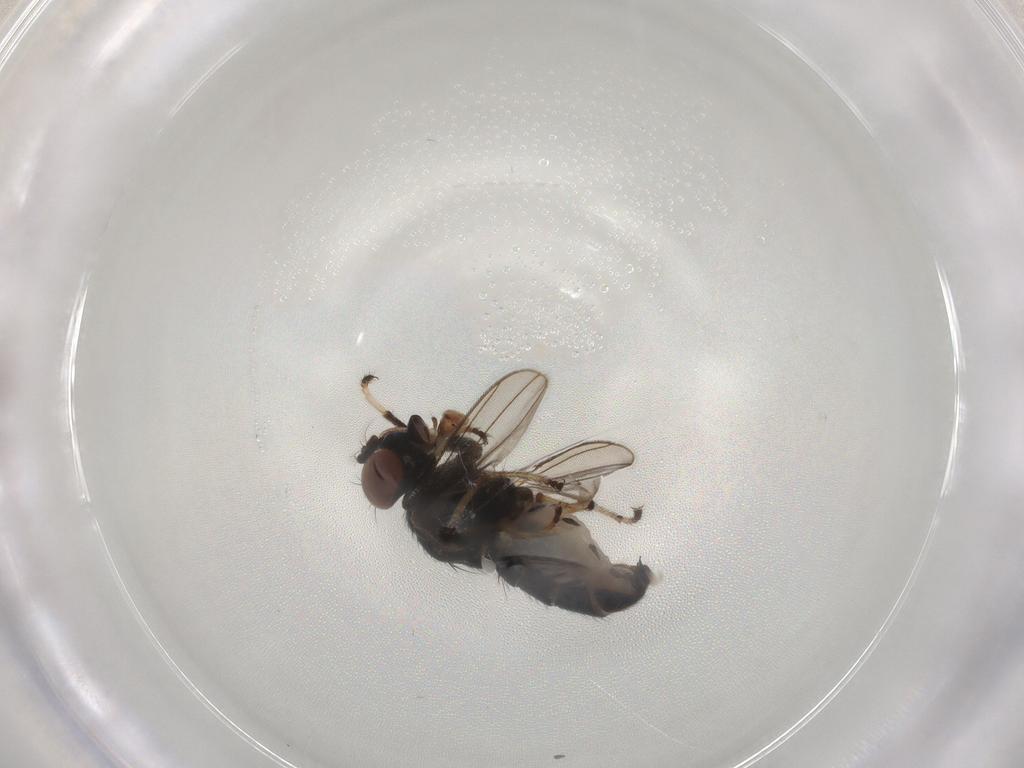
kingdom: Animalia
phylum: Arthropoda
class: Insecta
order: Diptera
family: Ephydridae
